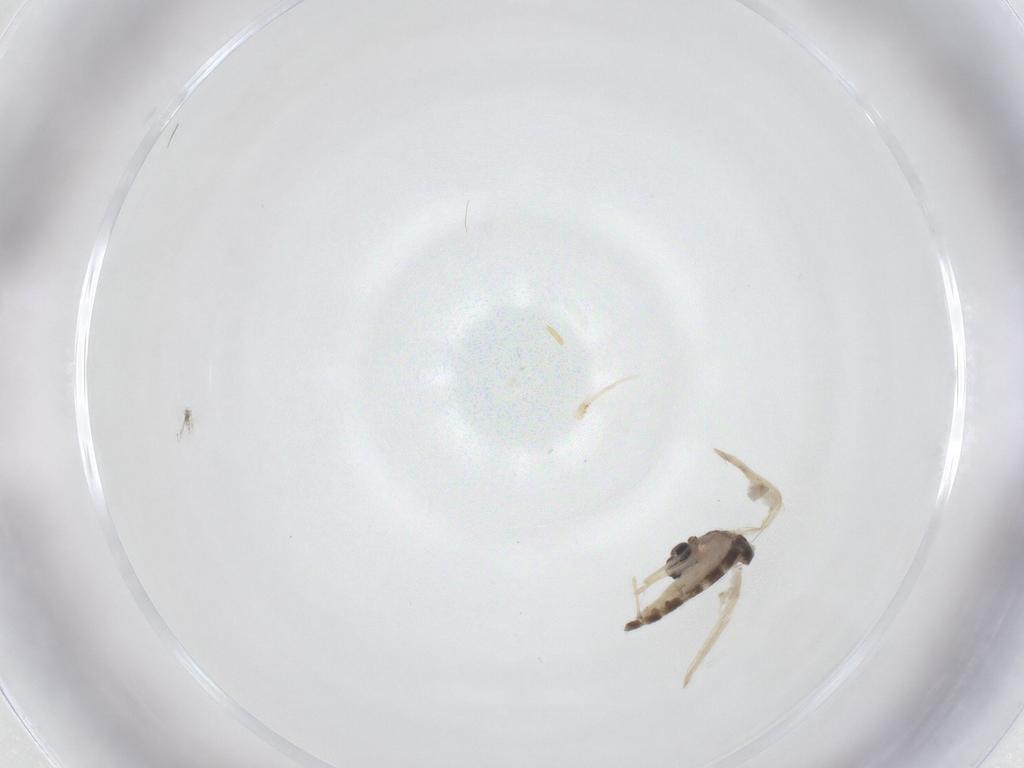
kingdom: Animalia
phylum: Arthropoda
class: Insecta
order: Diptera
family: Chironomidae
